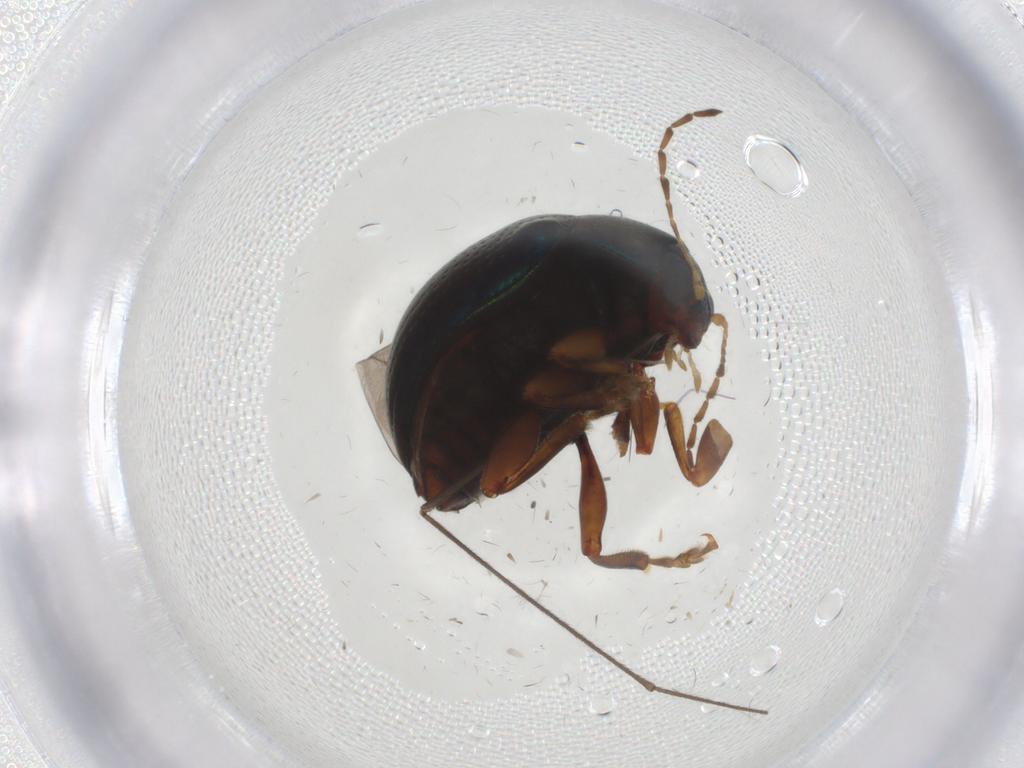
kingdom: Animalia
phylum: Arthropoda
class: Insecta
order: Coleoptera
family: Chrysomelidae
